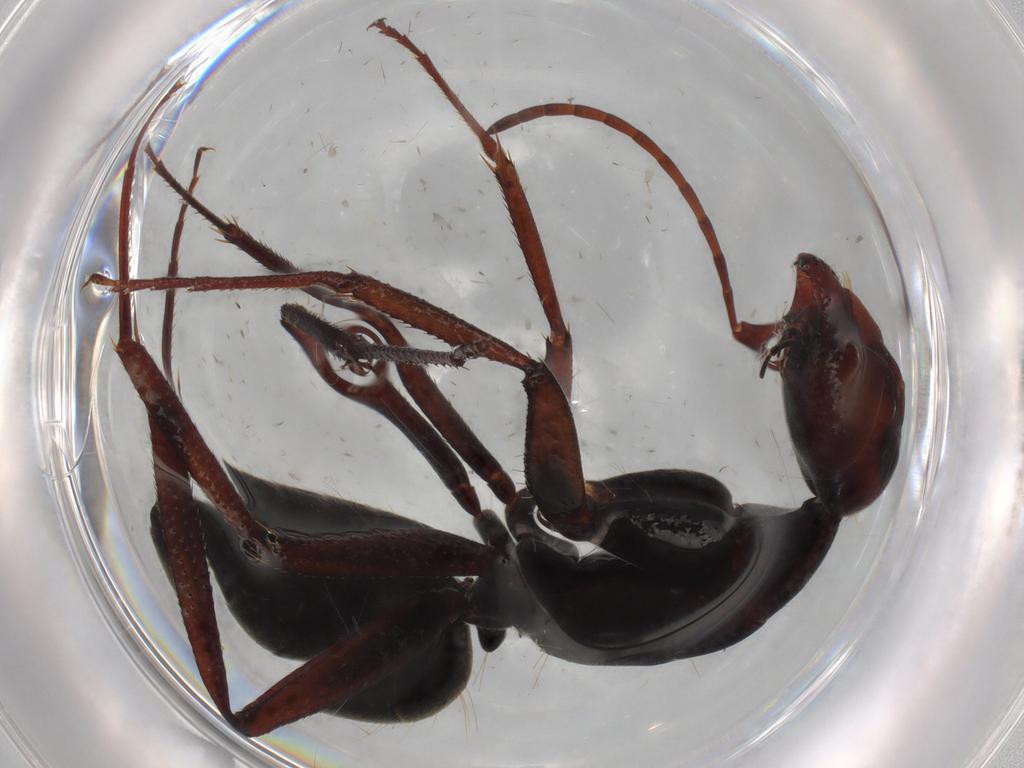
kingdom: Animalia
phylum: Arthropoda
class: Insecta
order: Hymenoptera
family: Formicidae
